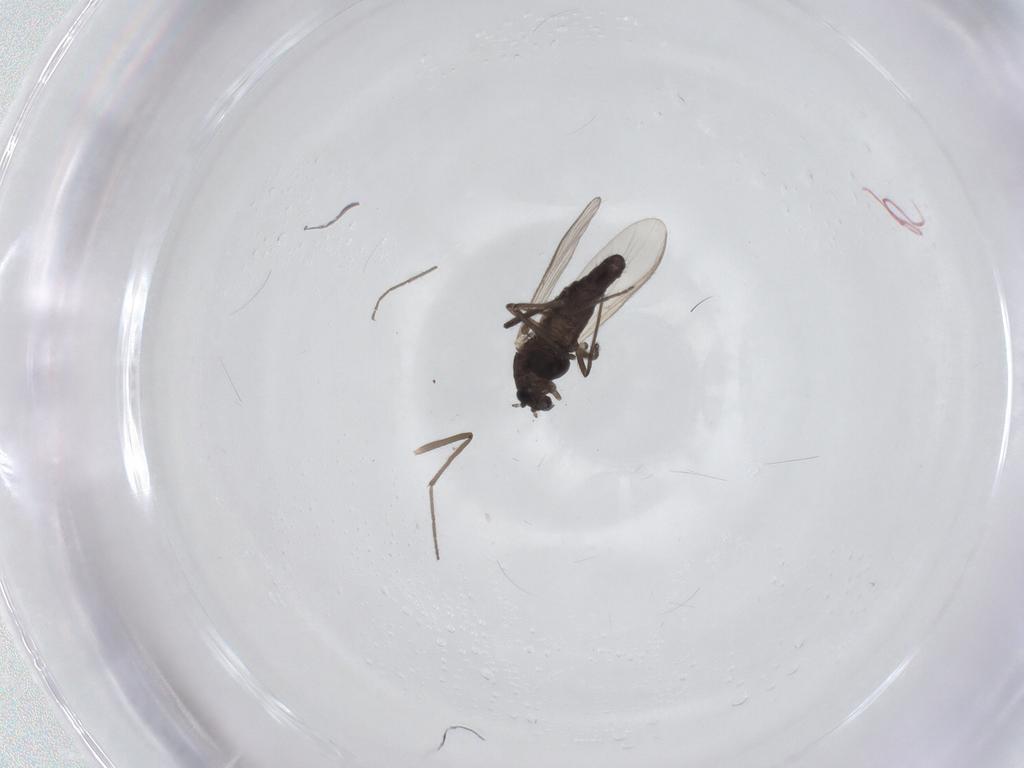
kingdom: Animalia
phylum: Arthropoda
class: Insecta
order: Diptera
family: Chironomidae
